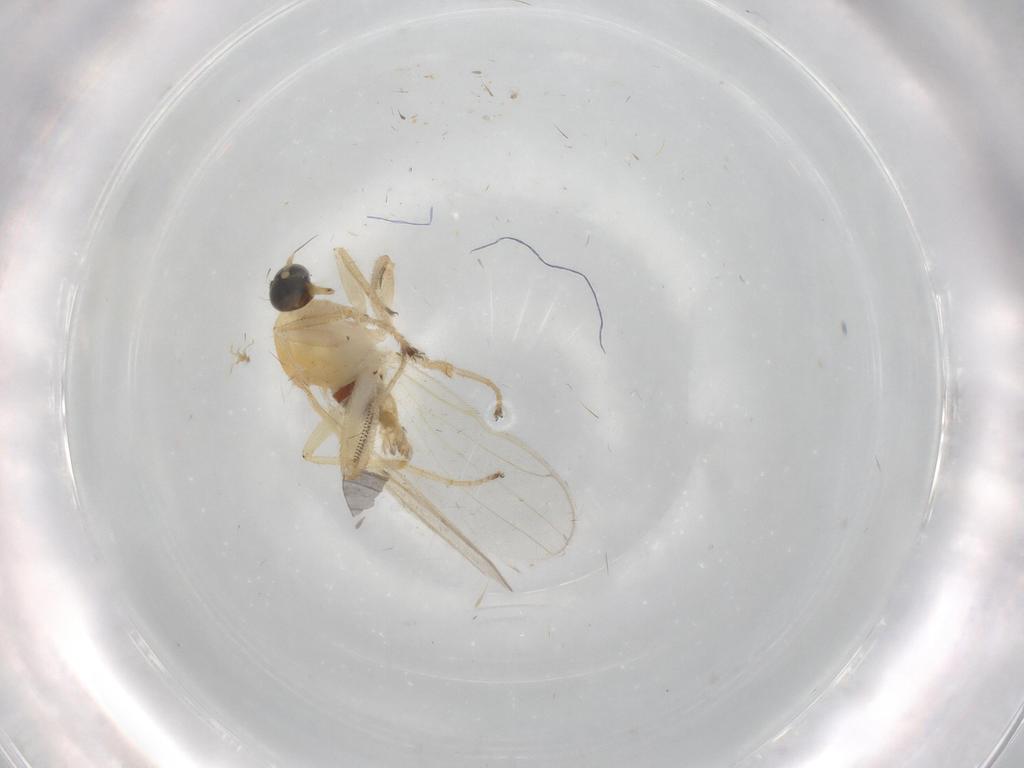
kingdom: Animalia
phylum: Arthropoda
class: Insecta
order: Diptera
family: Hybotidae
